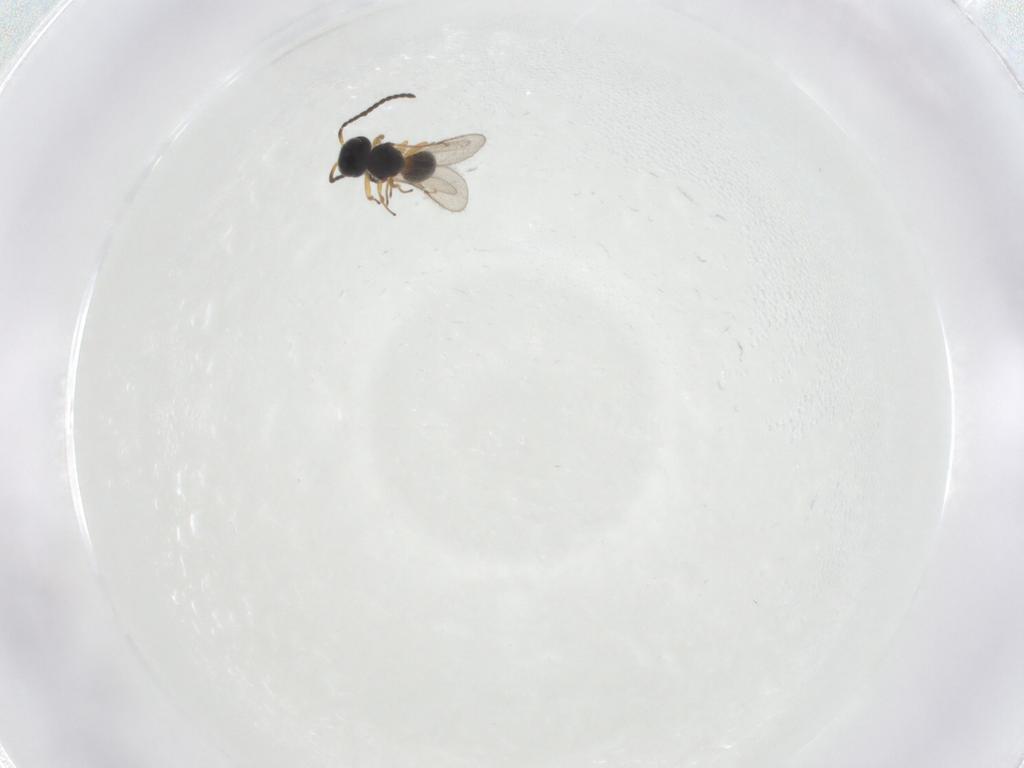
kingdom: Animalia
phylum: Arthropoda
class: Insecta
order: Hymenoptera
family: Scelionidae
